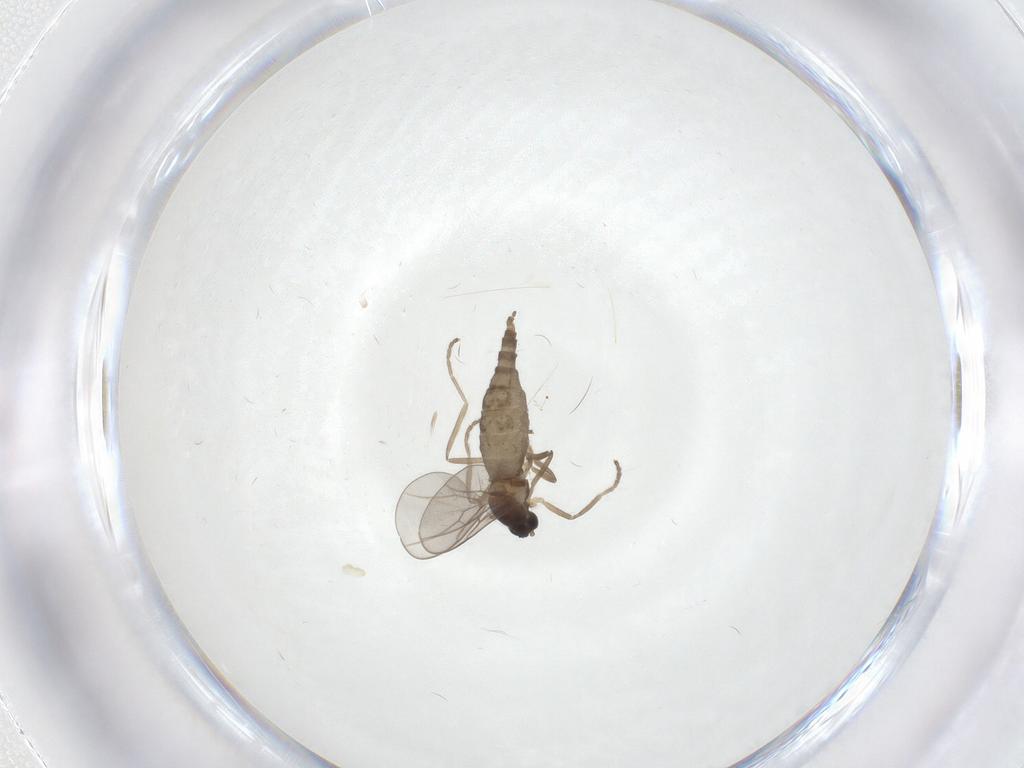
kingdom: Animalia
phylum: Arthropoda
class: Insecta
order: Diptera
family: Cecidomyiidae
